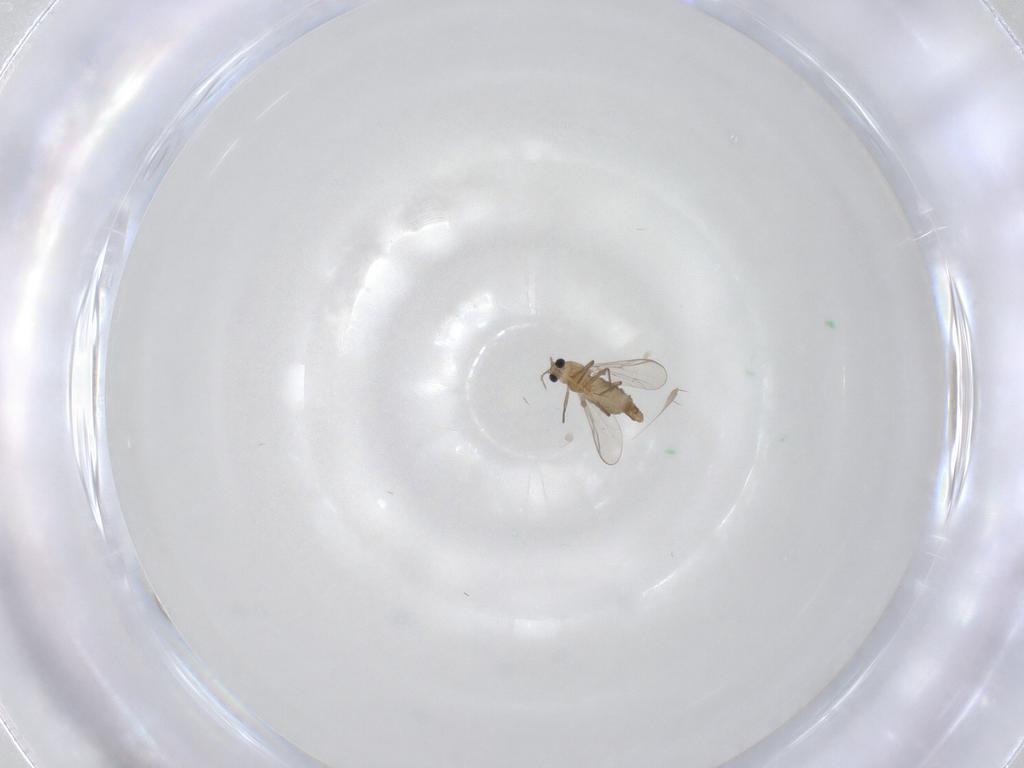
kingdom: Animalia
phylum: Arthropoda
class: Insecta
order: Diptera
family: Chironomidae
